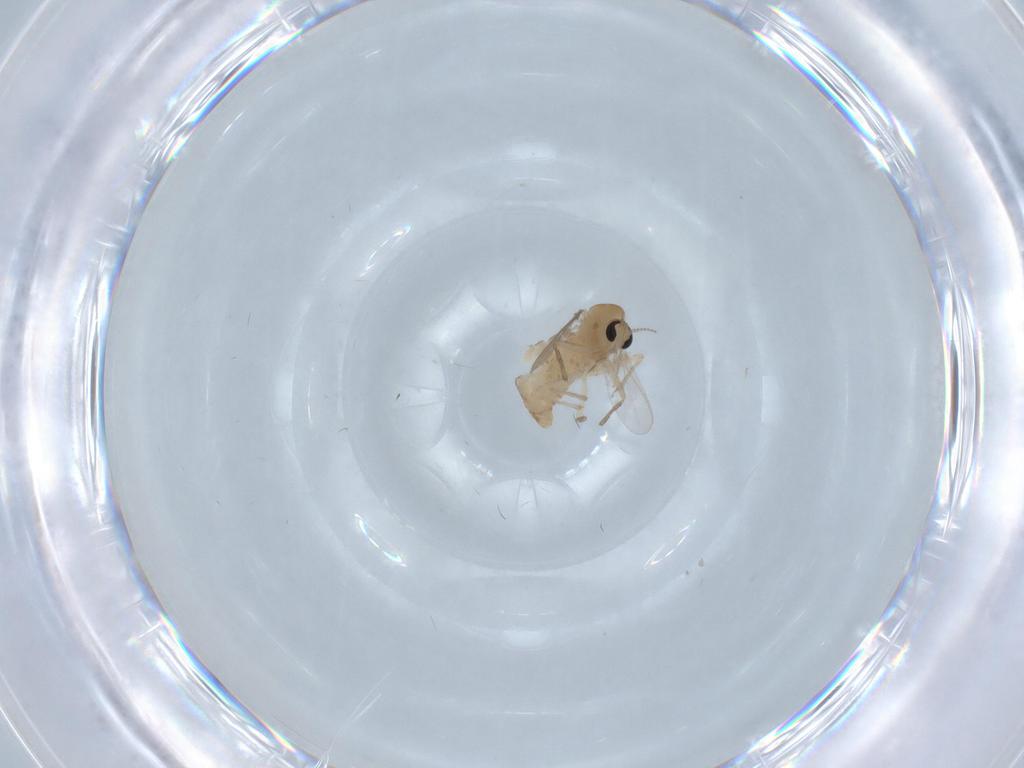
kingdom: Animalia
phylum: Arthropoda
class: Insecta
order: Diptera
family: Chironomidae
